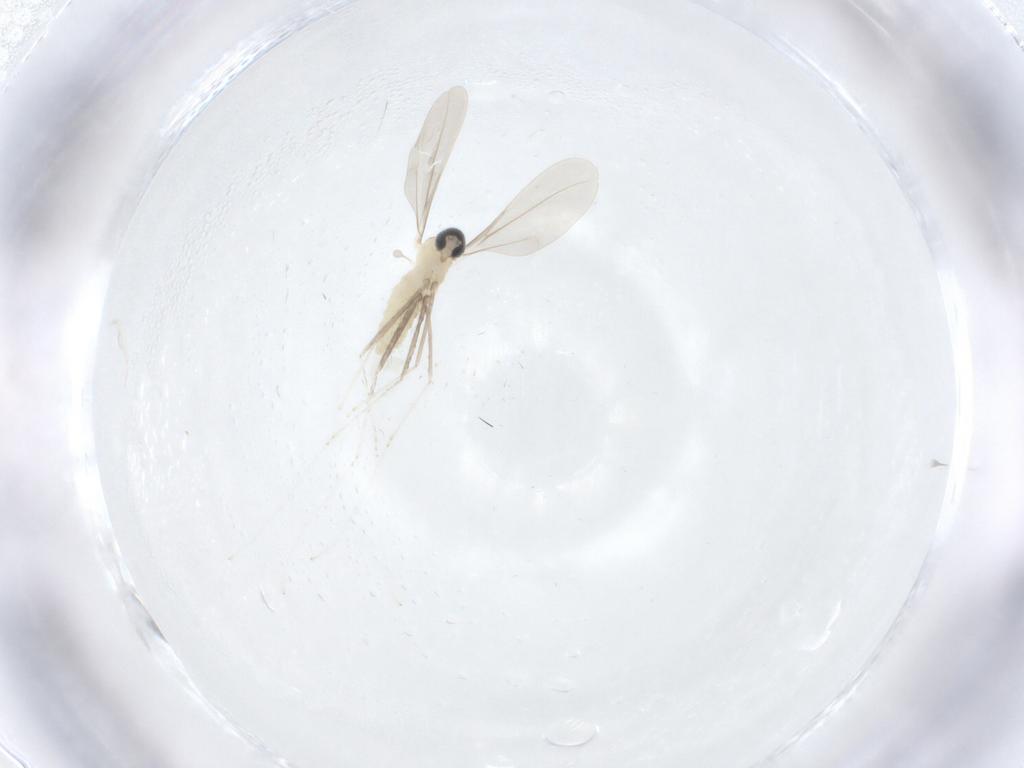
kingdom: Animalia
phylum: Arthropoda
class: Insecta
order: Diptera
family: Cecidomyiidae
